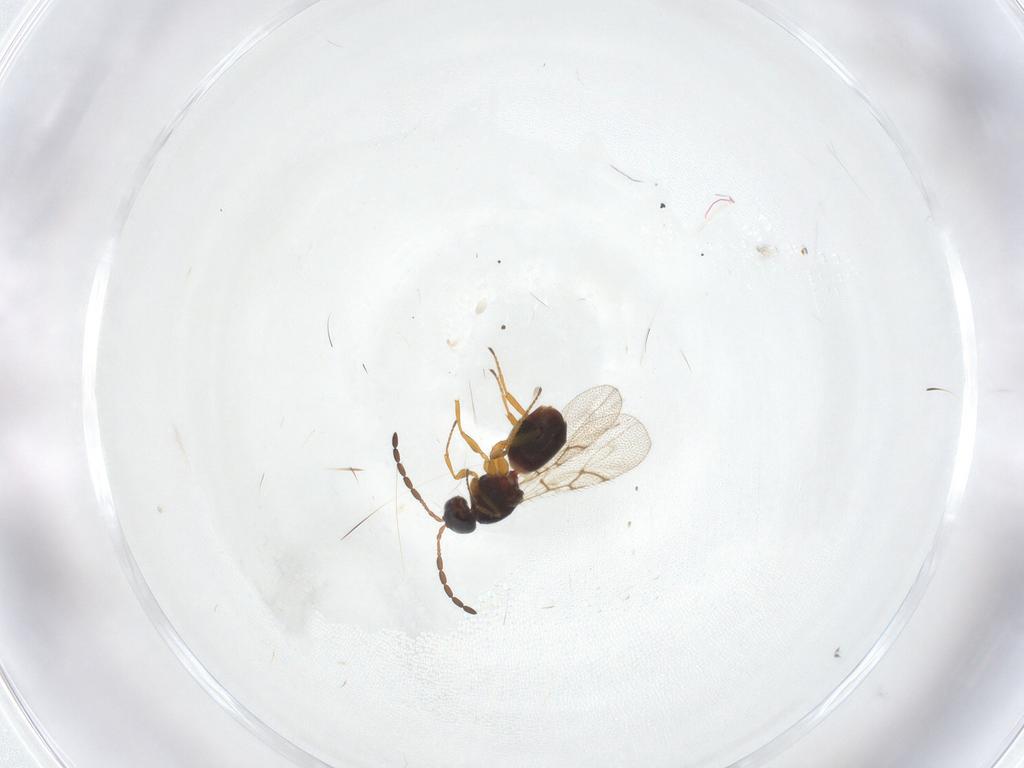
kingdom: Animalia
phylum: Arthropoda
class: Insecta
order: Hymenoptera
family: Figitidae
